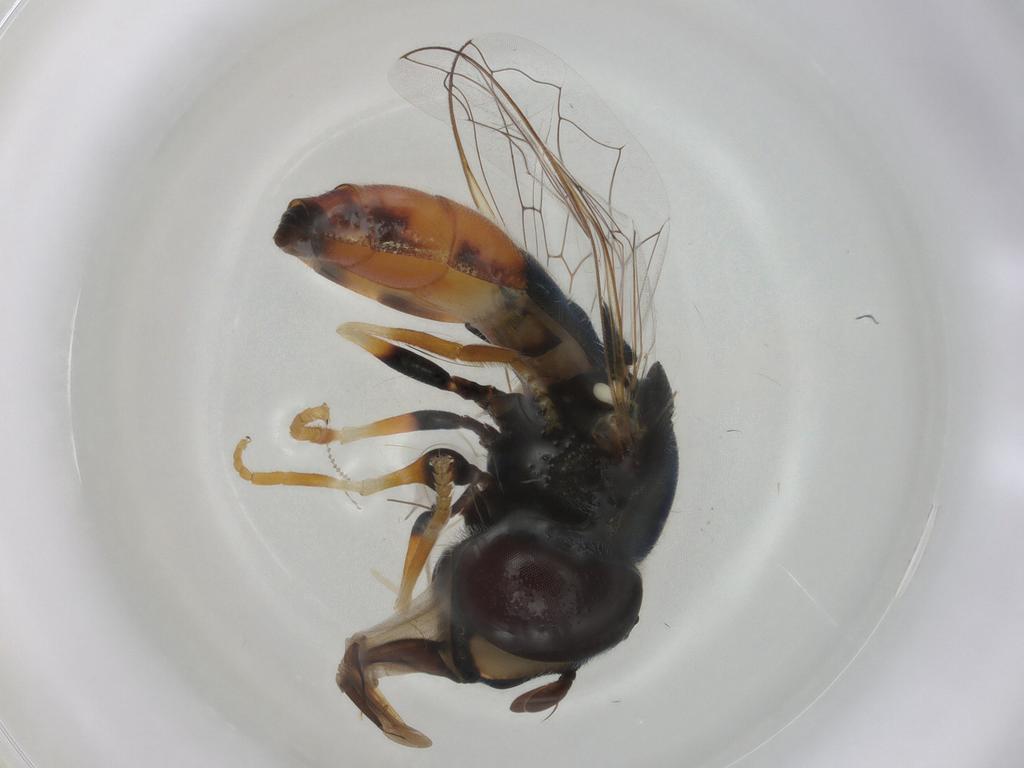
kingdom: Animalia
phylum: Arthropoda
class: Insecta
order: Diptera
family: Syrphidae
